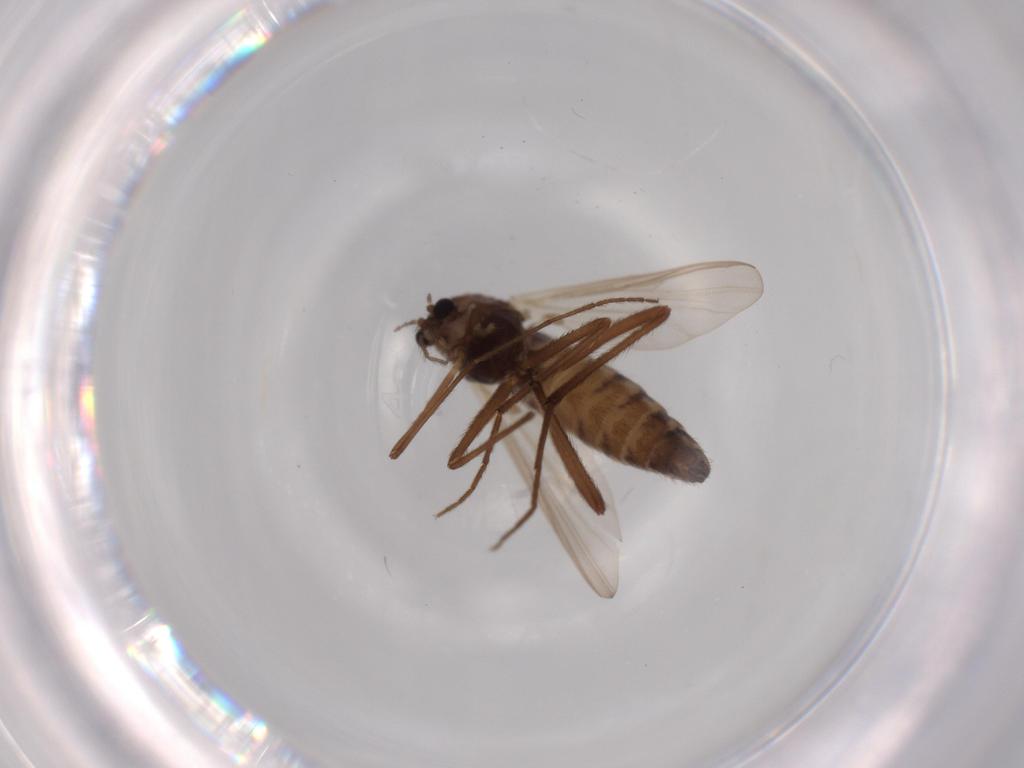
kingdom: Animalia
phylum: Arthropoda
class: Insecta
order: Diptera
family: Chironomidae
